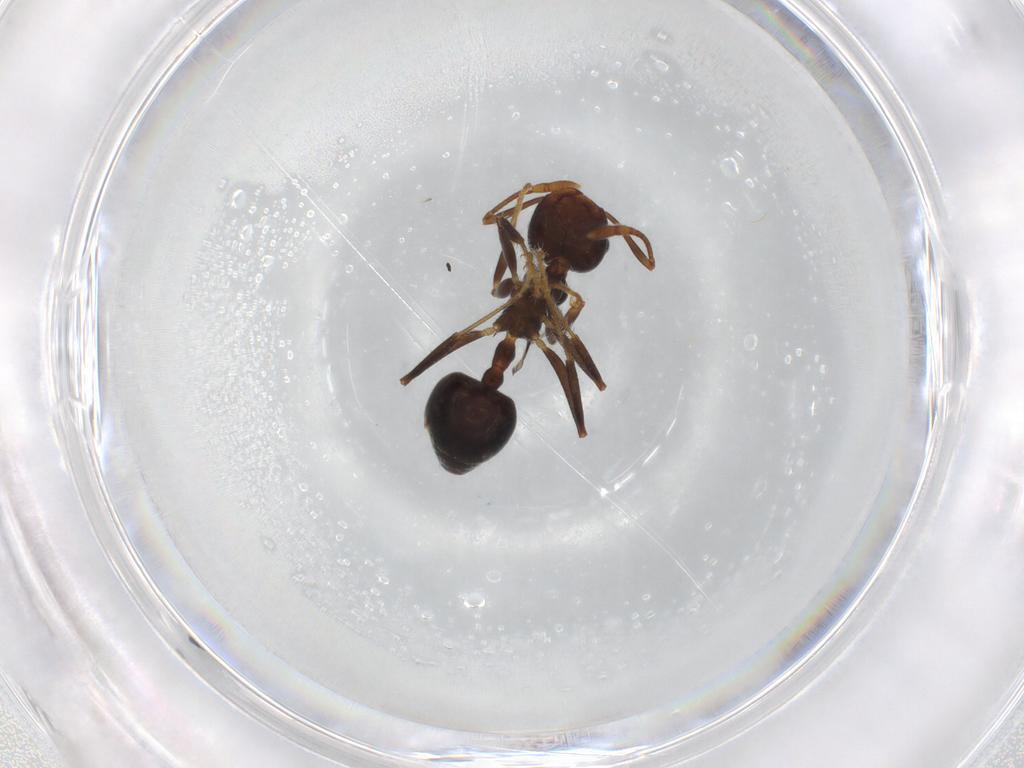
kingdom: Animalia
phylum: Arthropoda
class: Insecta
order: Hymenoptera
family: Formicidae
